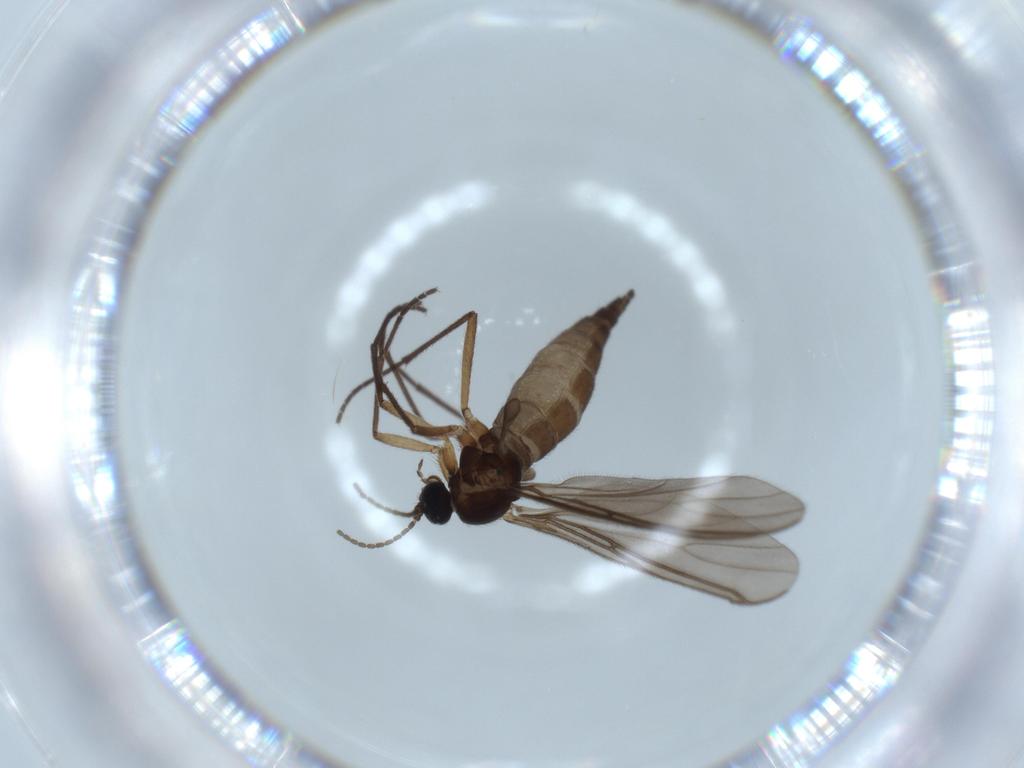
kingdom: Animalia
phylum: Arthropoda
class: Insecta
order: Diptera
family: Sciaridae
